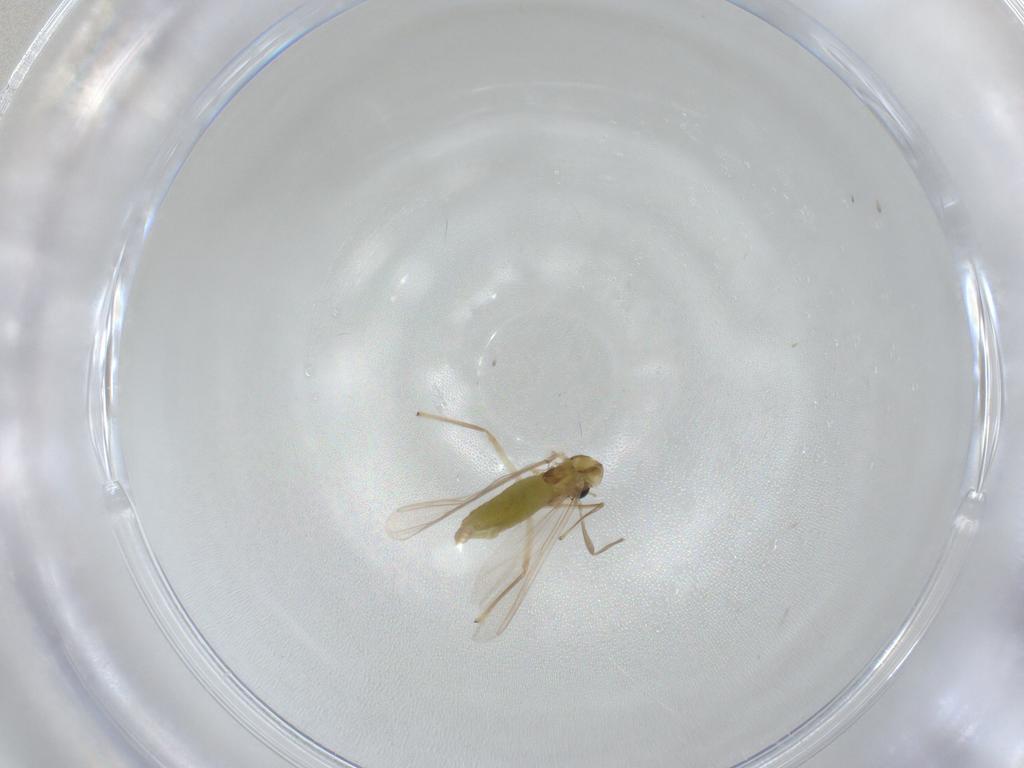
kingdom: Animalia
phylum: Arthropoda
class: Insecta
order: Diptera
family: Chironomidae
